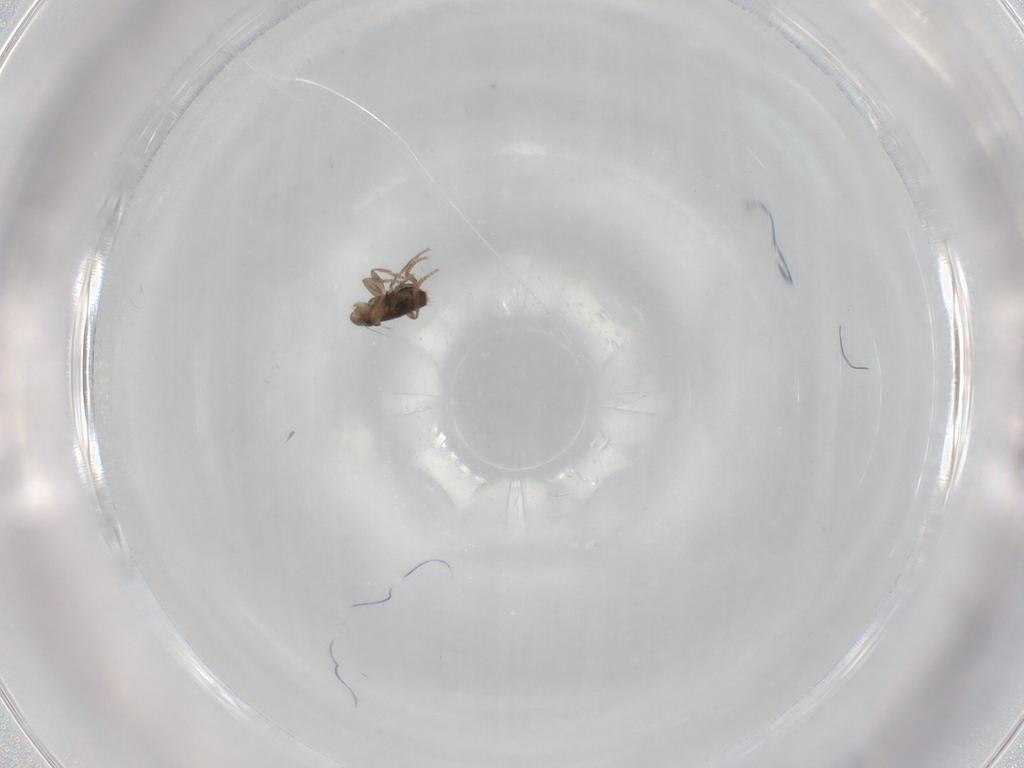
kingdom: Animalia
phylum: Arthropoda
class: Insecta
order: Diptera
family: Phoridae
